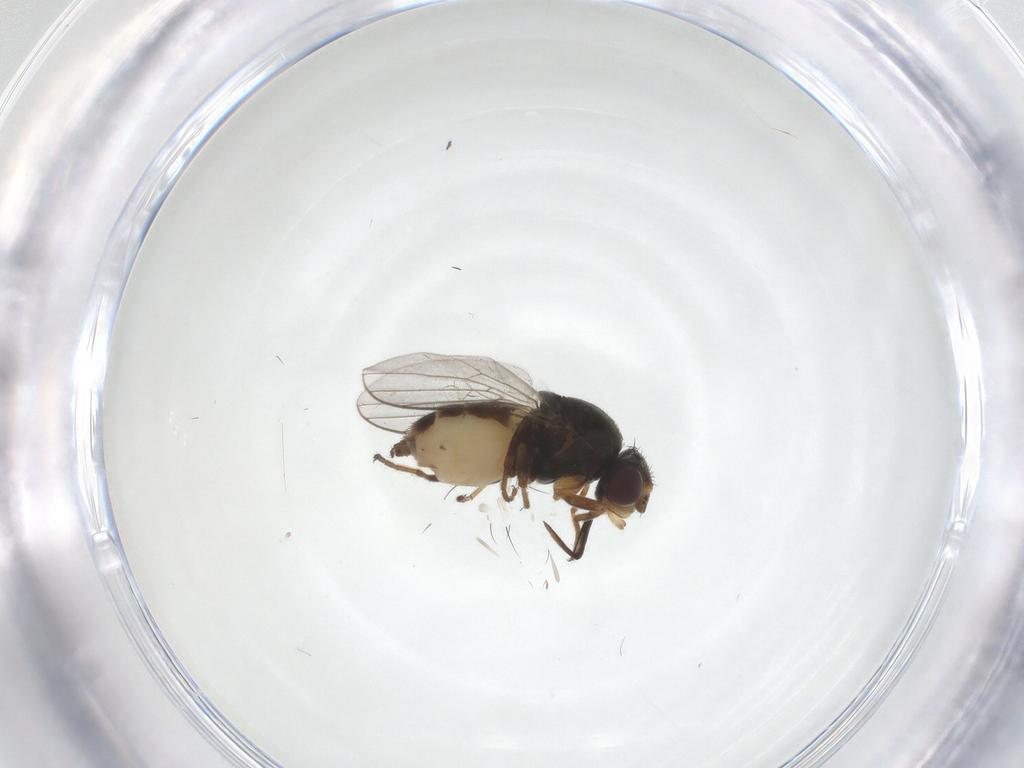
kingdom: Animalia
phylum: Arthropoda
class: Insecta
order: Diptera
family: Chloropidae
